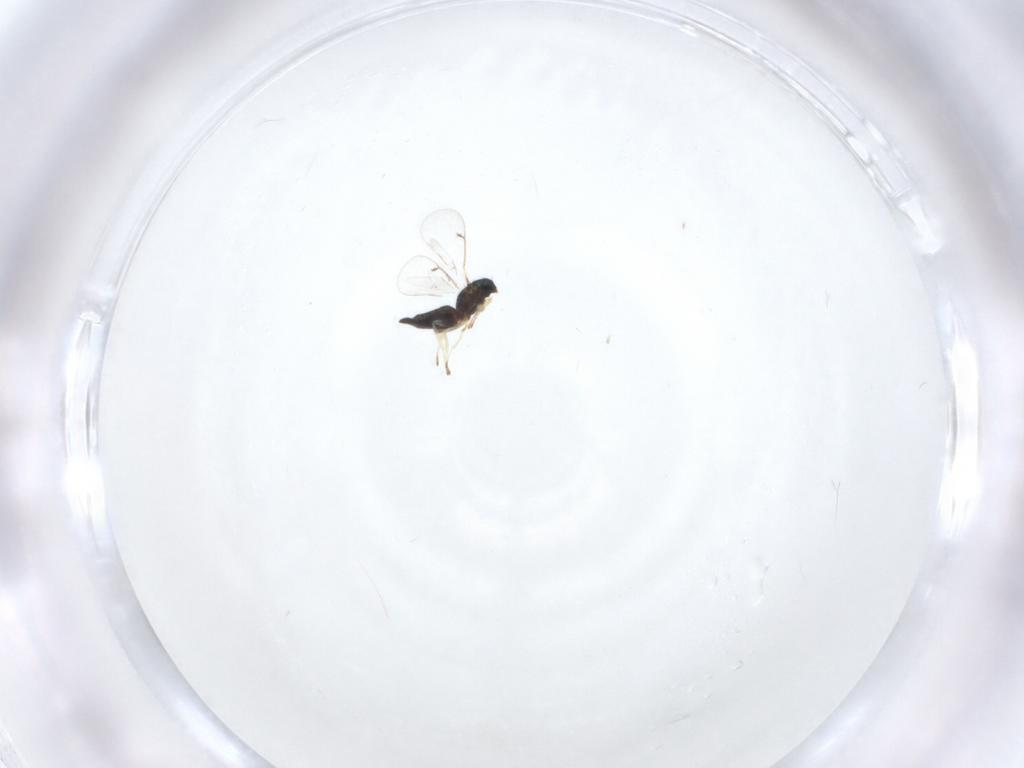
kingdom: Animalia
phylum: Arthropoda
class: Insecta
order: Hymenoptera
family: Eulophidae
